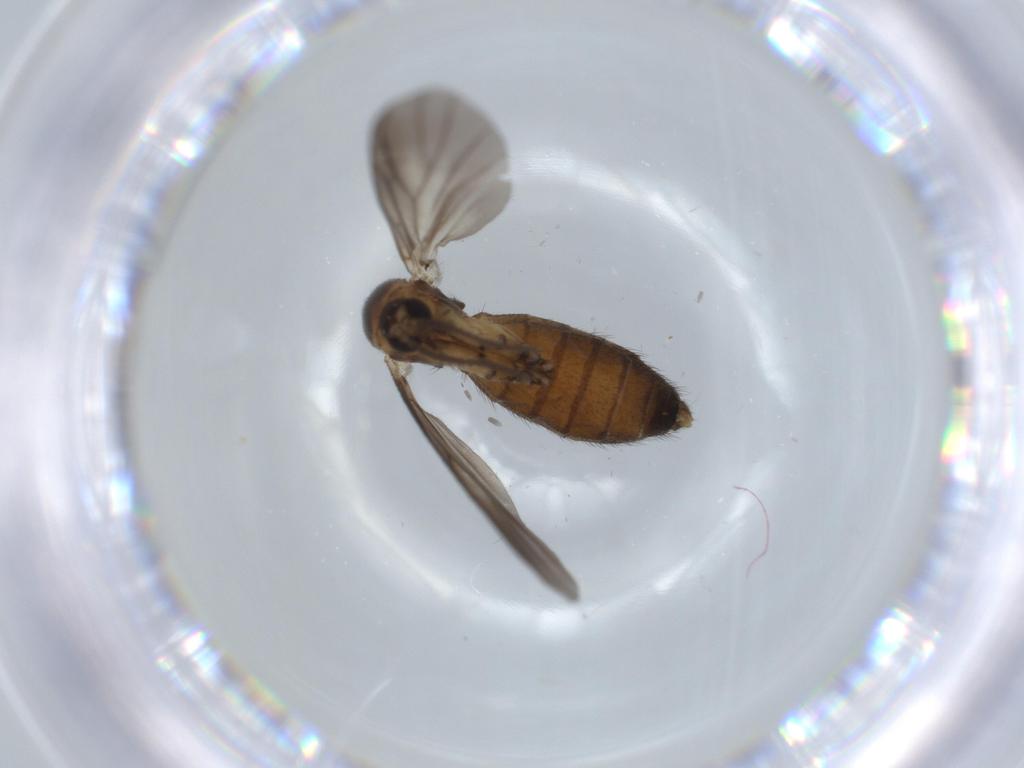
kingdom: Animalia
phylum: Arthropoda
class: Insecta
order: Diptera
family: Mycetophilidae
